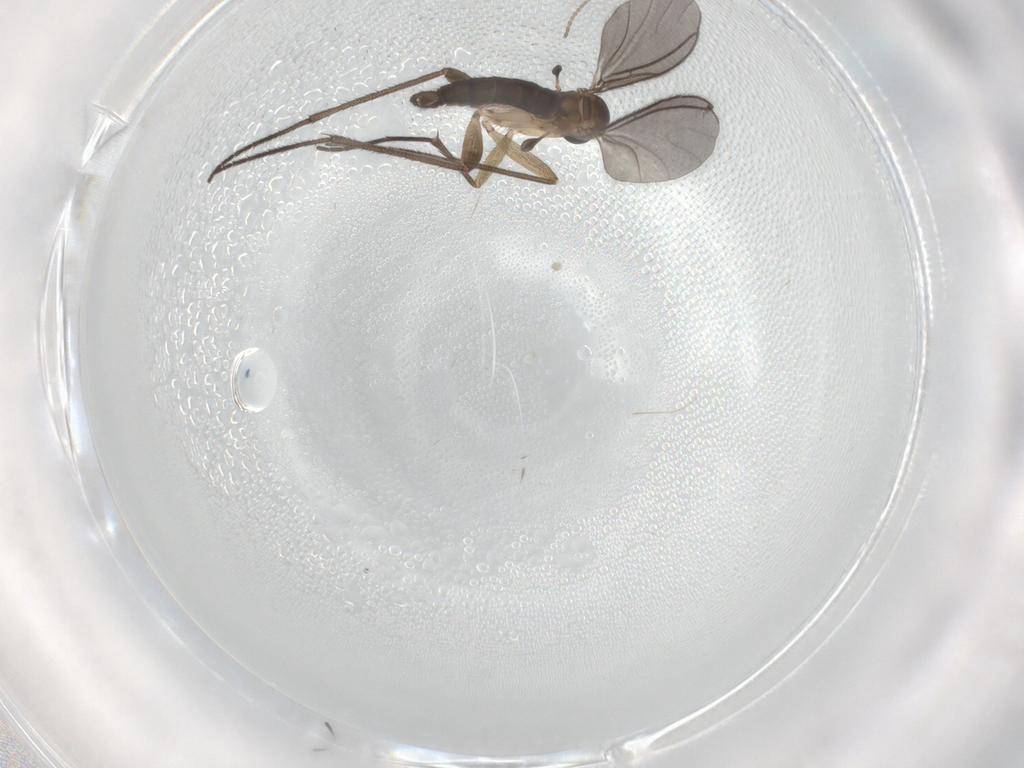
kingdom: Animalia
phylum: Arthropoda
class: Insecta
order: Diptera
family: Sciaridae
